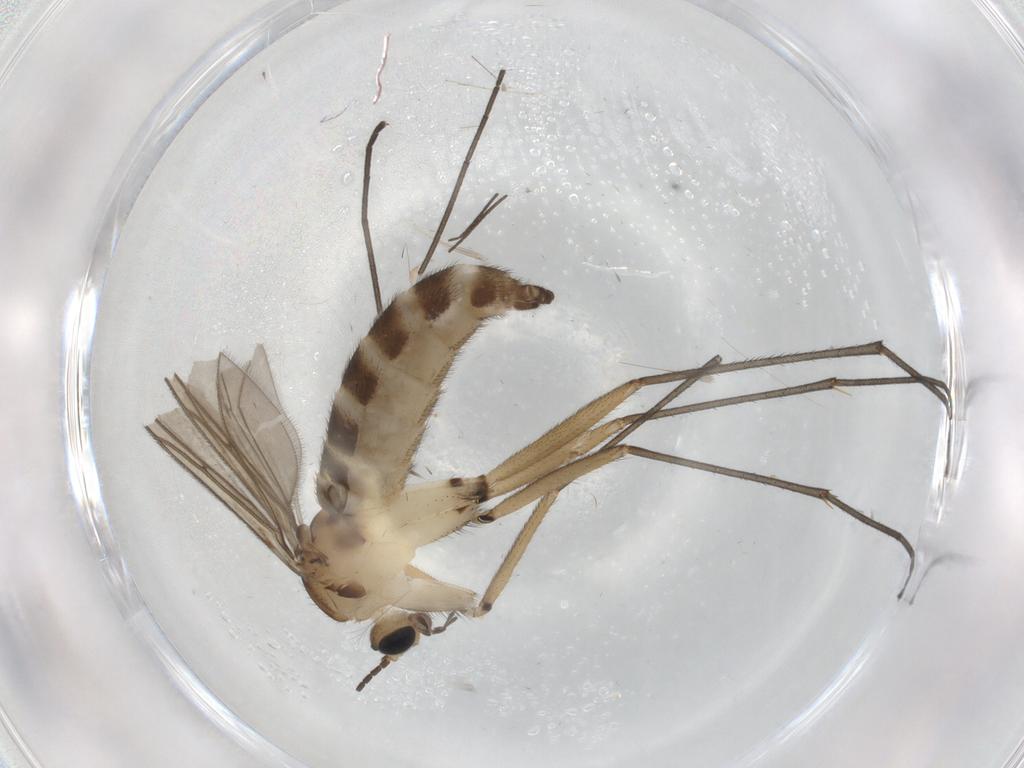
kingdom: Animalia
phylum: Arthropoda
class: Insecta
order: Diptera
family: Sciaridae
